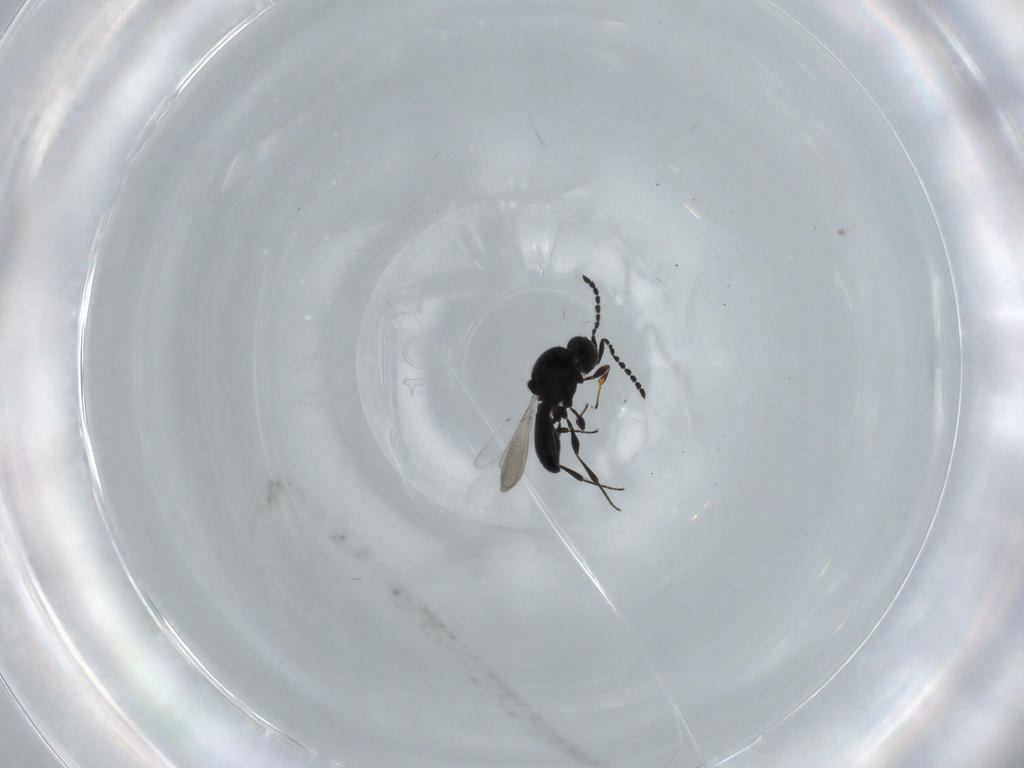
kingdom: Animalia
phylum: Arthropoda
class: Insecta
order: Hymenoptera
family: Platygastridae
